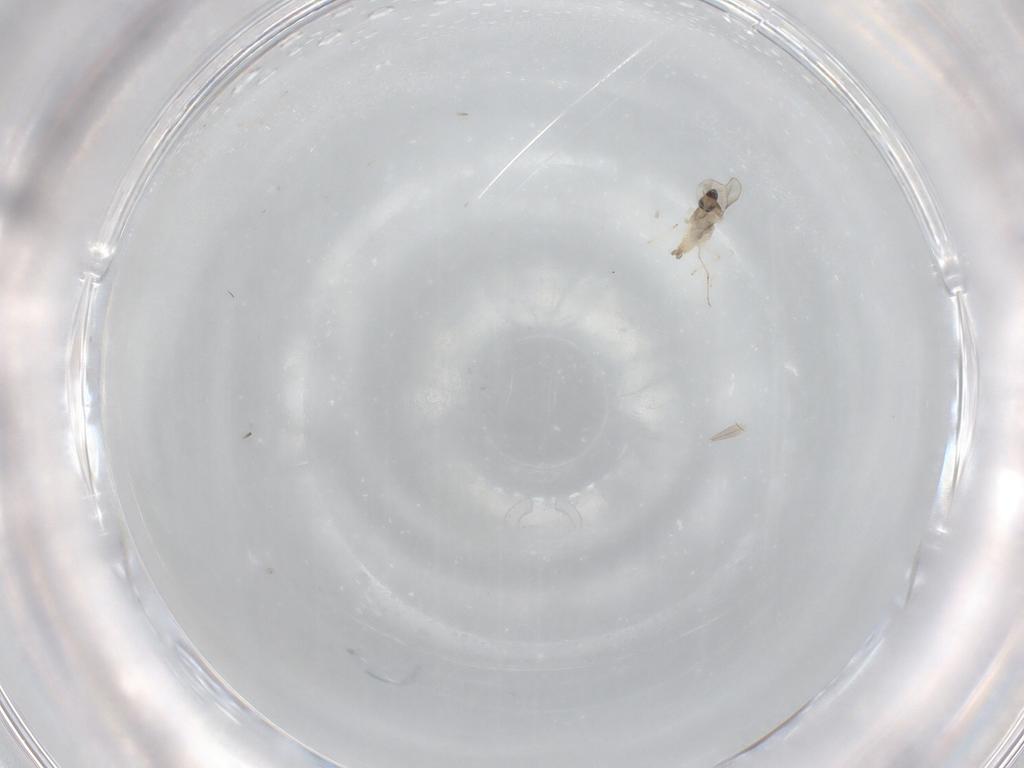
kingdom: Animalia
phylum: Arthropoda
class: Insecta
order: Diptera
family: Cecidomyiidae
